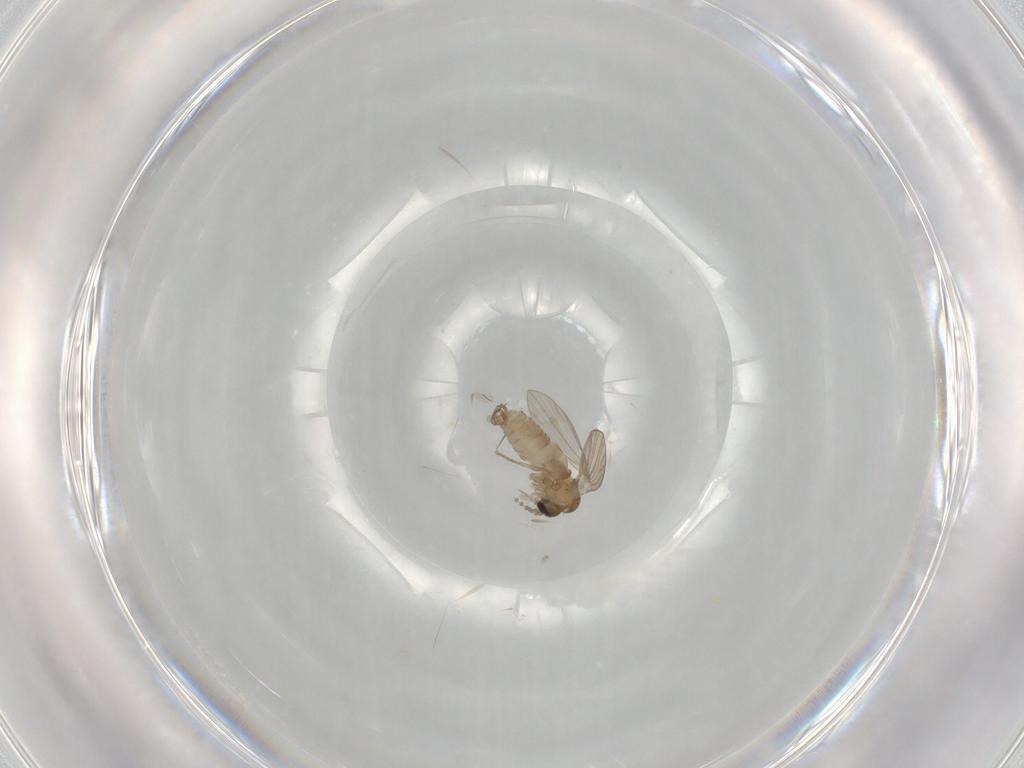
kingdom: Animalia
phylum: Arthropoda
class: Insecta
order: Diptera
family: Psychodidae
